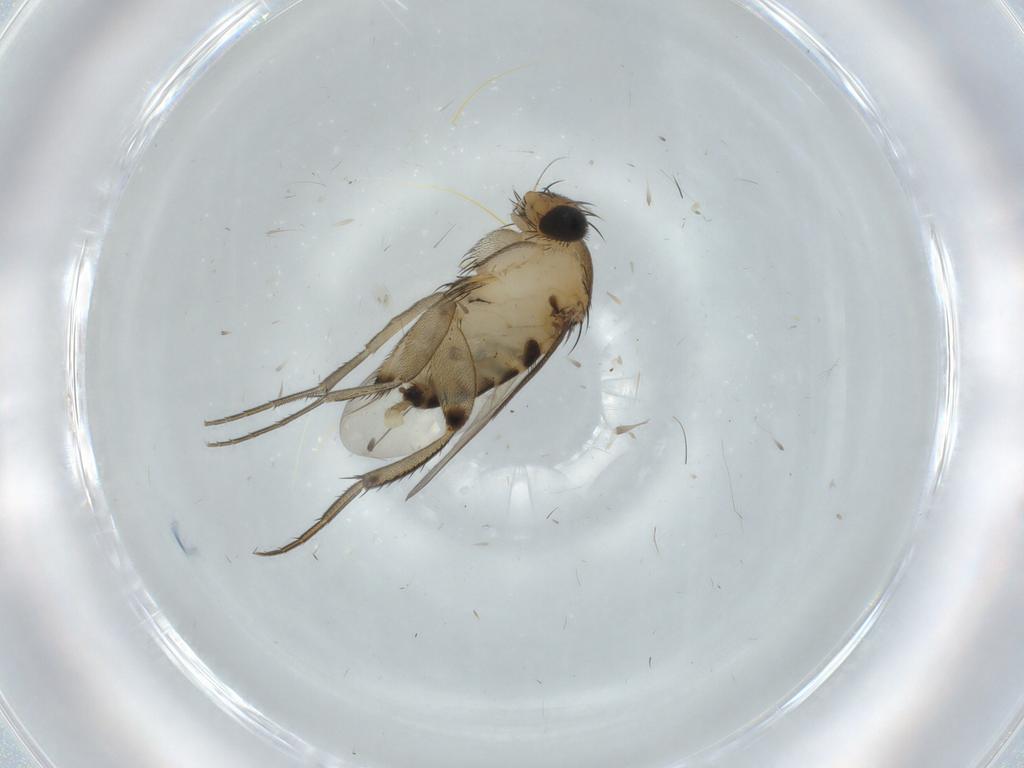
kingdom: Animalia
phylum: Arthropoda
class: Insecta
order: Diptera
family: Phoridae
